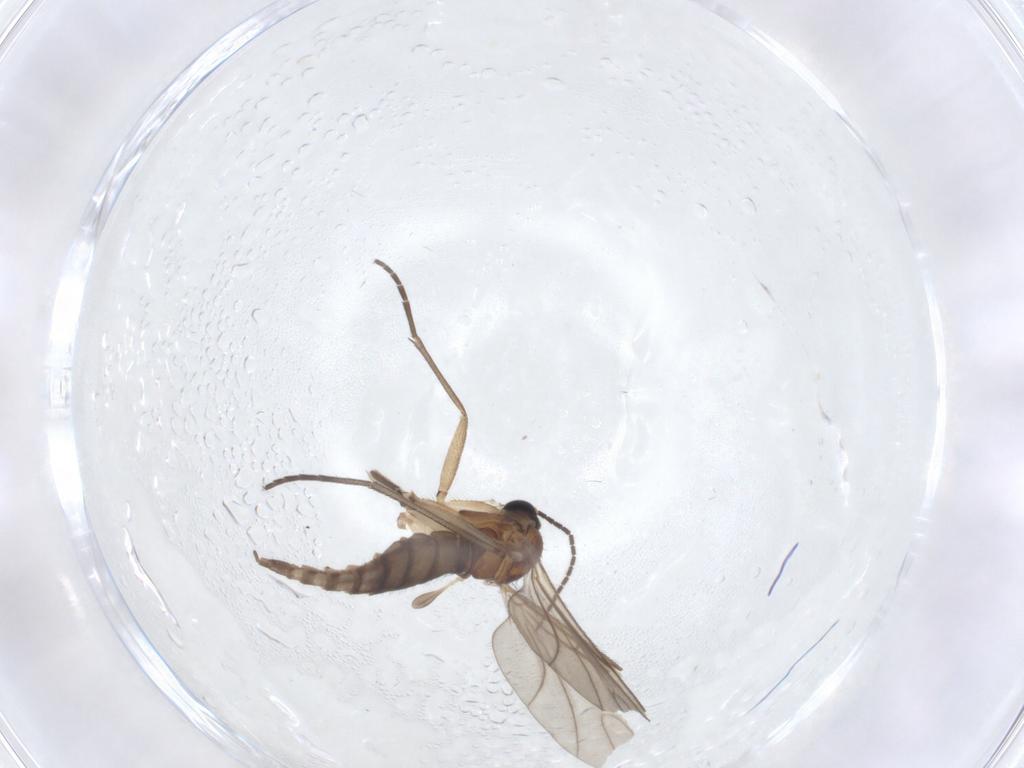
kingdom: Animalia
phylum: Arthropoda
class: Insecta
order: Diptera
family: Sciaridae
